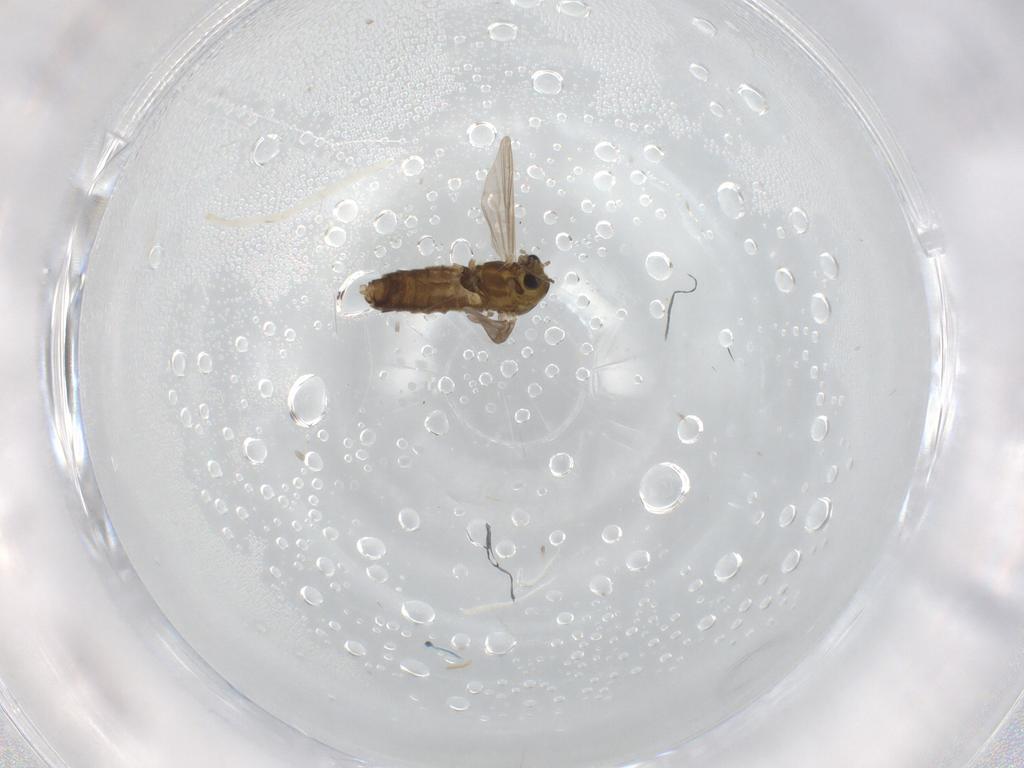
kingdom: Animalia
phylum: Arthropoda
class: Insecta
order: Diptera
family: Chironomidae
